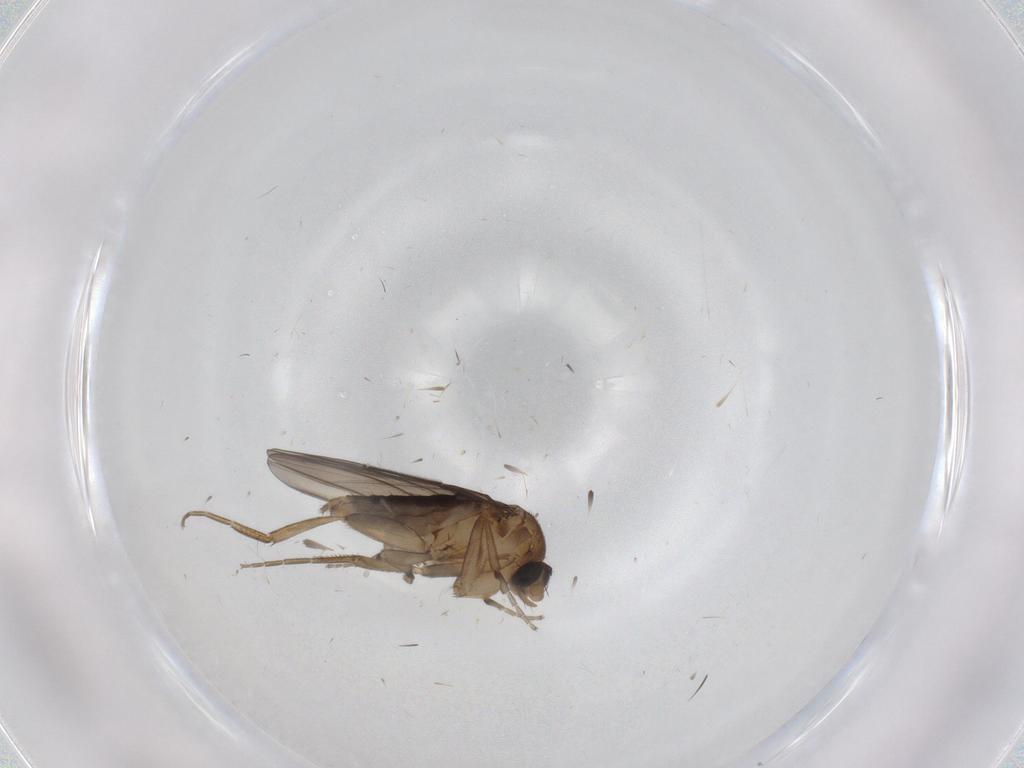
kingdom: Animalia
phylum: Arthropoda
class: Insecta
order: Diptera
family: Phoridae
